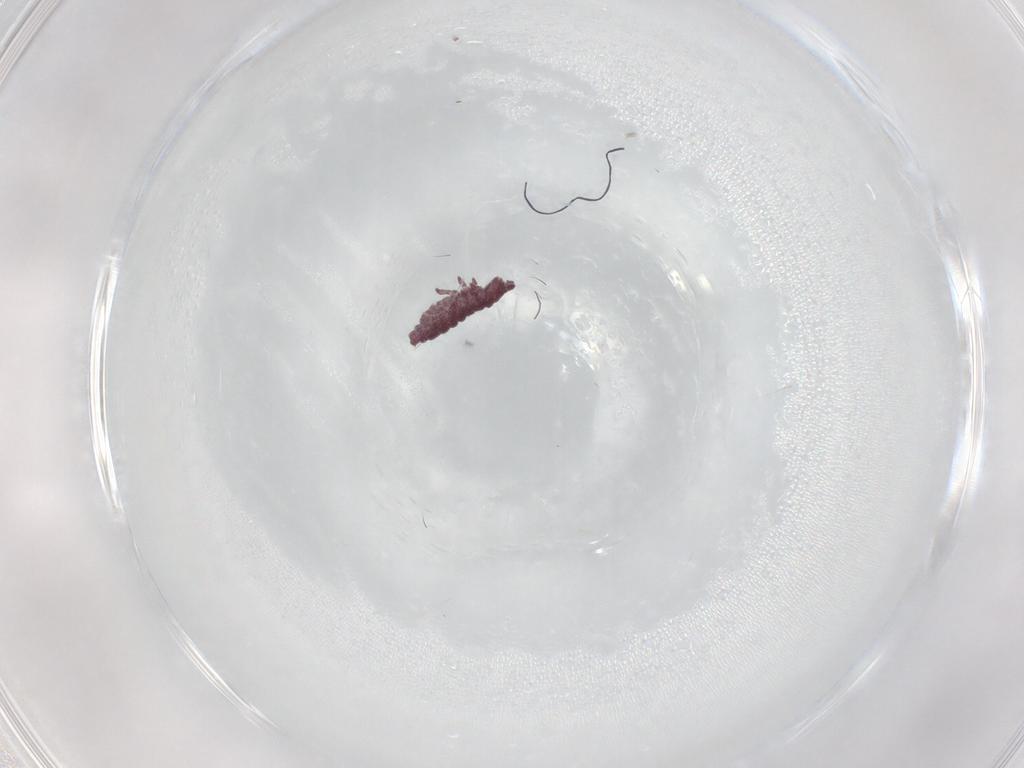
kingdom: Animalia
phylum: Arthropoda
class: Collembola
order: Poduromorpha
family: Hypogastruridae
